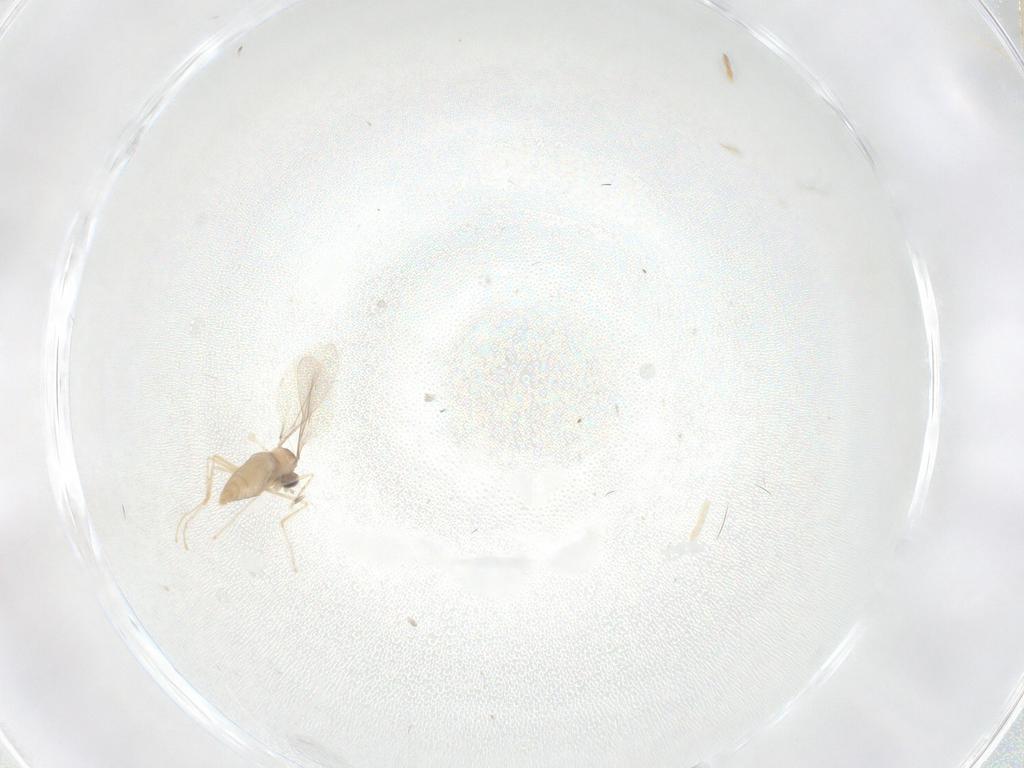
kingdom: Animalia
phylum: Arthropoda
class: Insecta
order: Diptera
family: Cecidomyiidae
